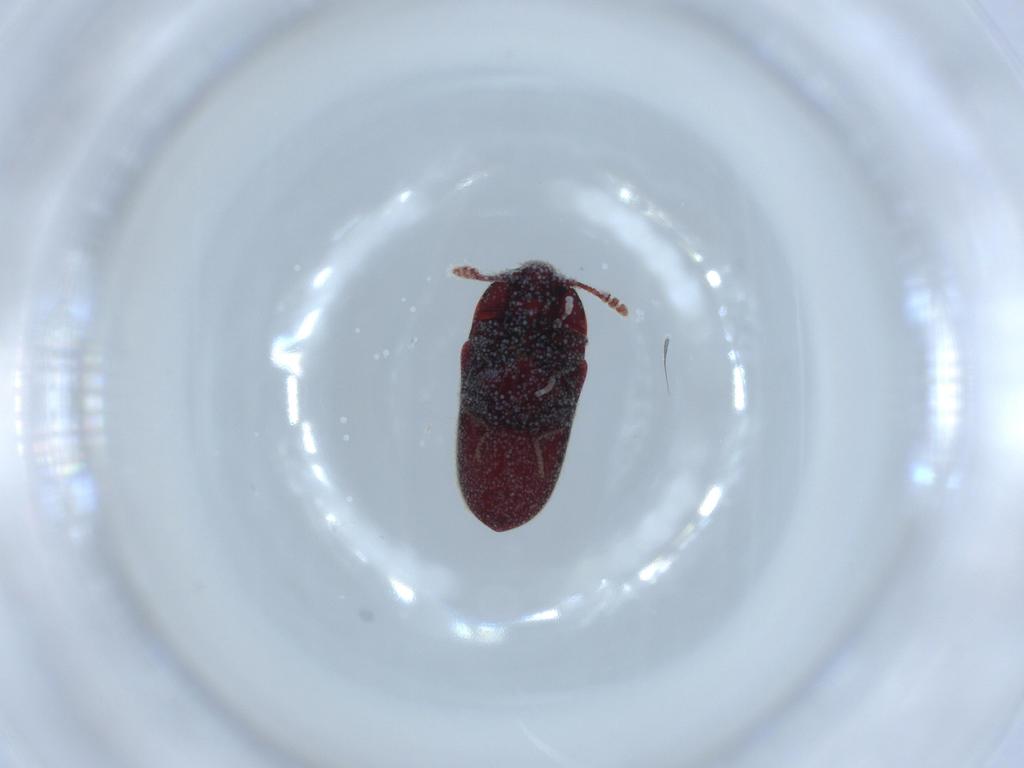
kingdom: Animalia
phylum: Arthropoda
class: Insecta
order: Coleoptera
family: Throscidae
